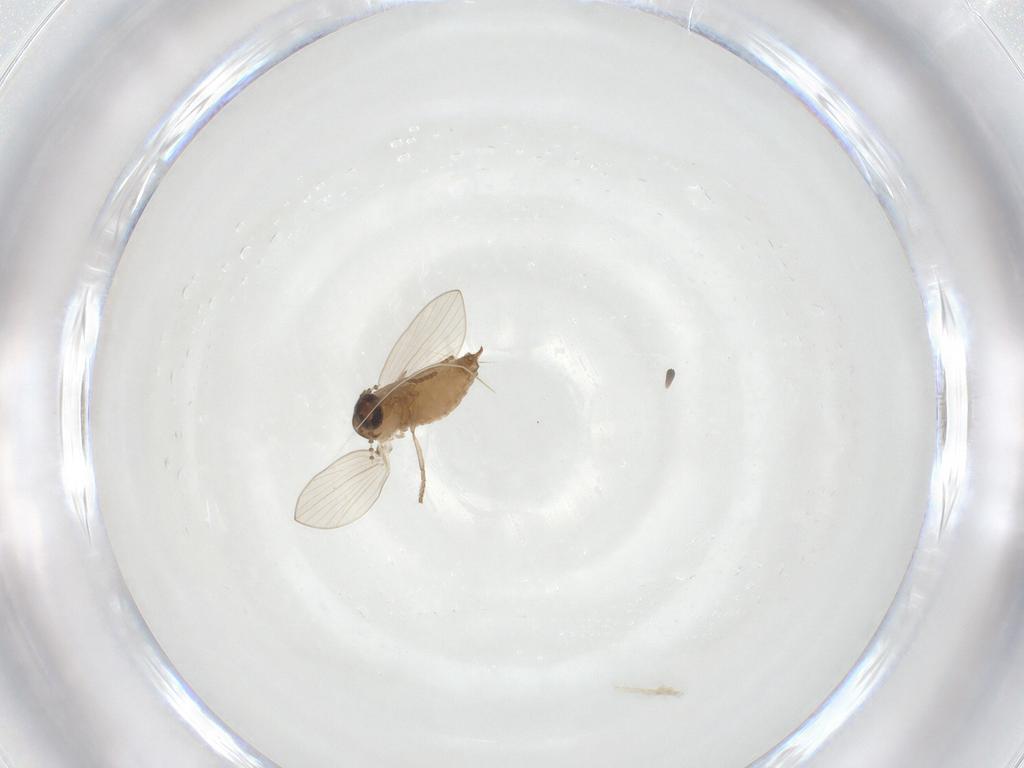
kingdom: Animalia
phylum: Arthropoda
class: Insecta
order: Diptera
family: Psychodidae
